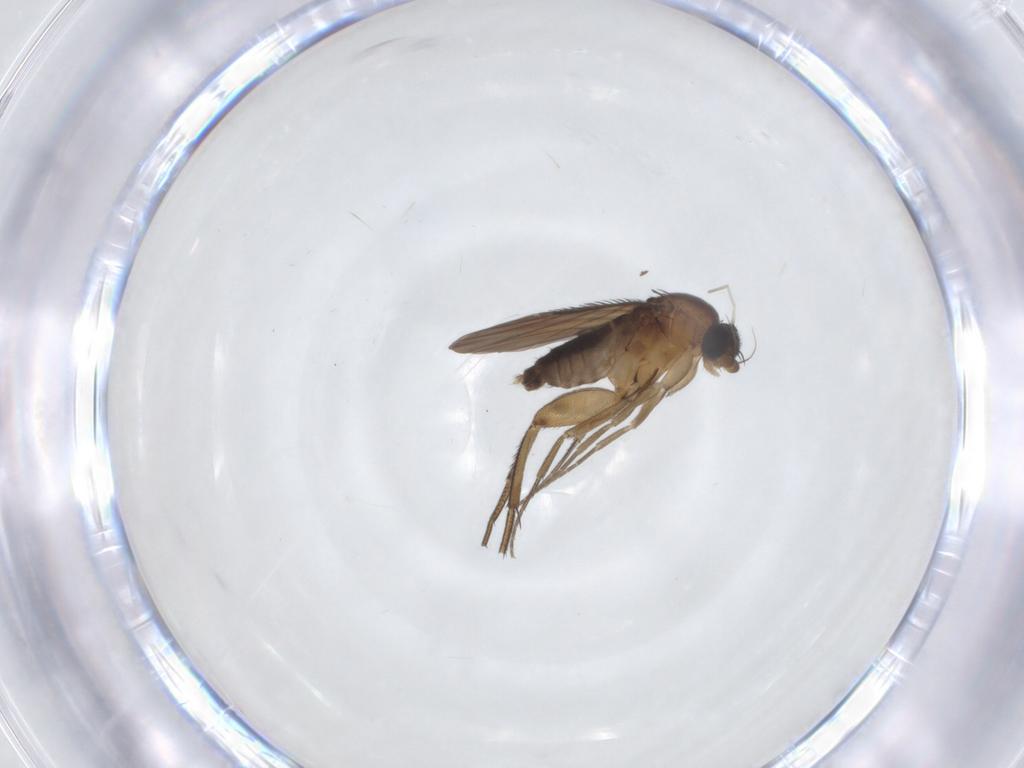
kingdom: Animalia
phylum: Arthropoda
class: Insecta
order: Diptera
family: Phoridae
